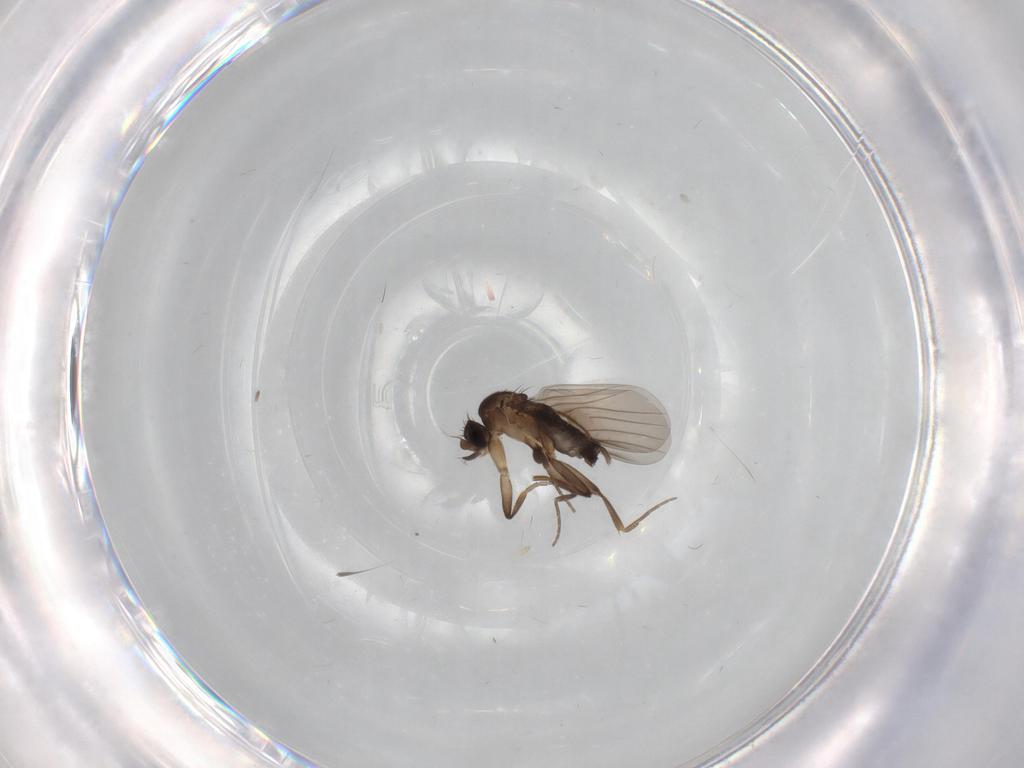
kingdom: Animalia
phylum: Arthropoda
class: Insecta
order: Diptera
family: Phoridae
